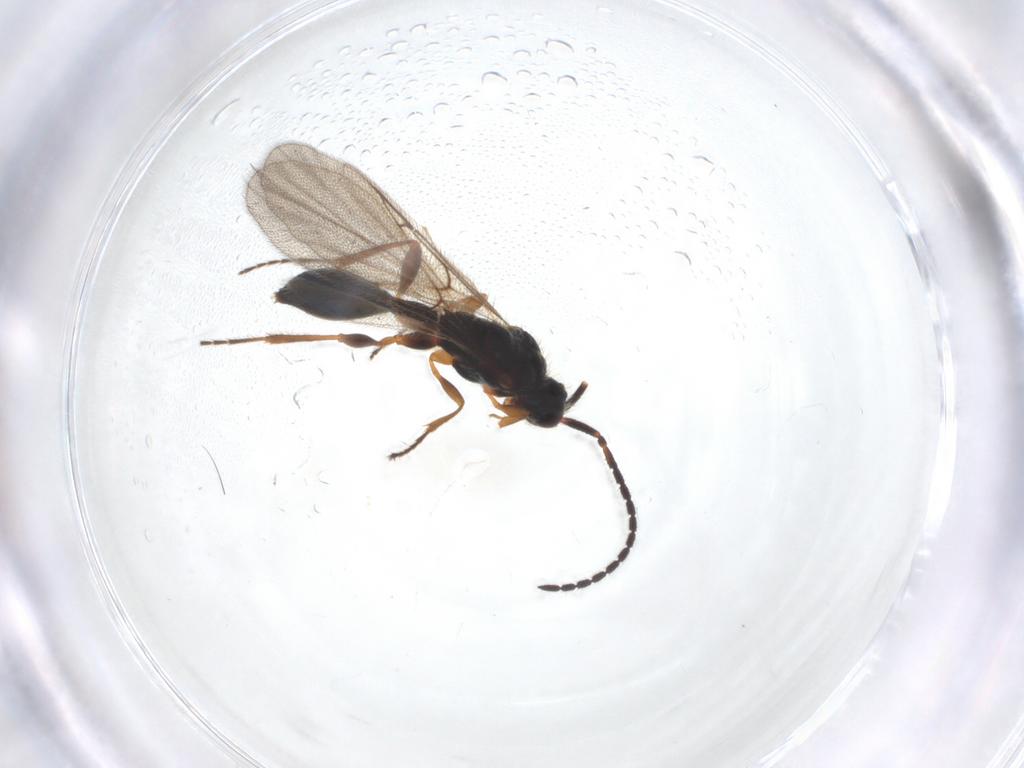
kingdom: Animalia
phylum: Arthropoda
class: Insecta
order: Hymenoptera
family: Diapriidae
